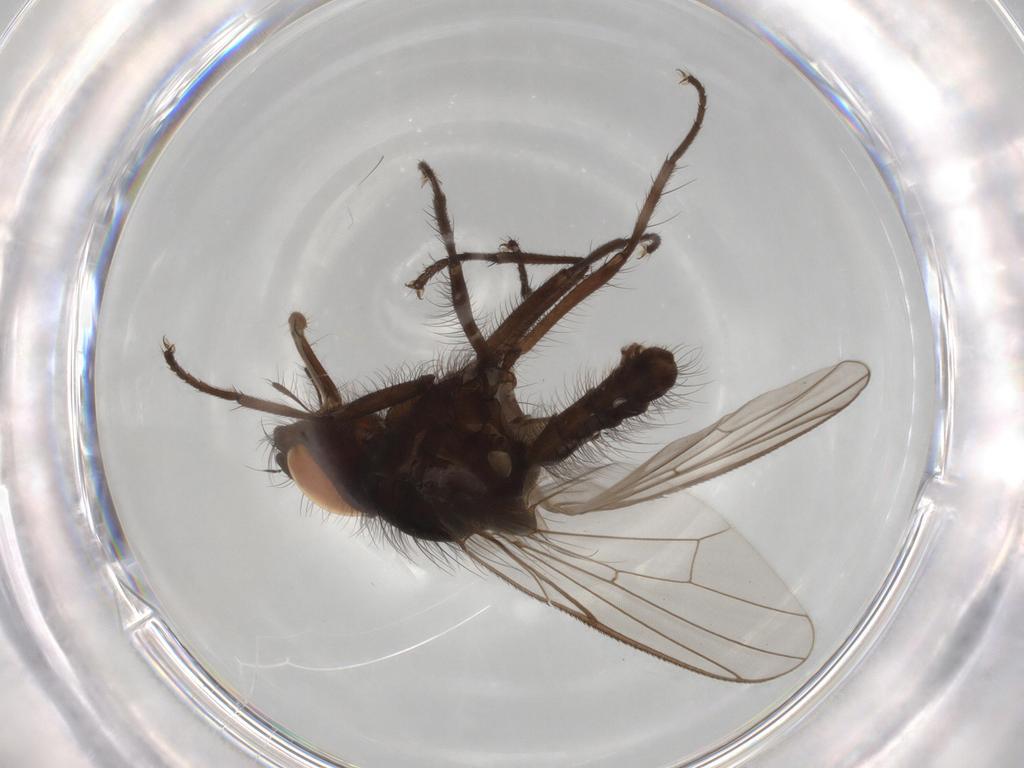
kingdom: Animalia
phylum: Arthropoda
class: Insecta
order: Diptera
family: Anthomyiidae
